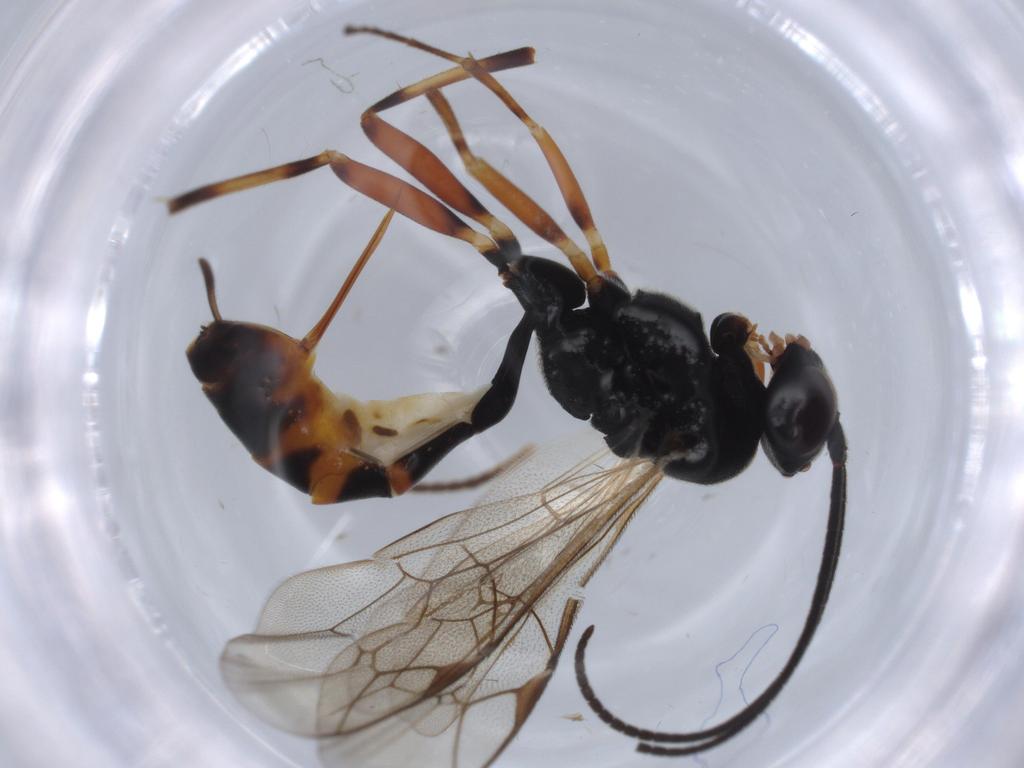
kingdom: Animalia
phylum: Arthropoda
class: Insecta
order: Hymenoptera
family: Ichneumonidae
